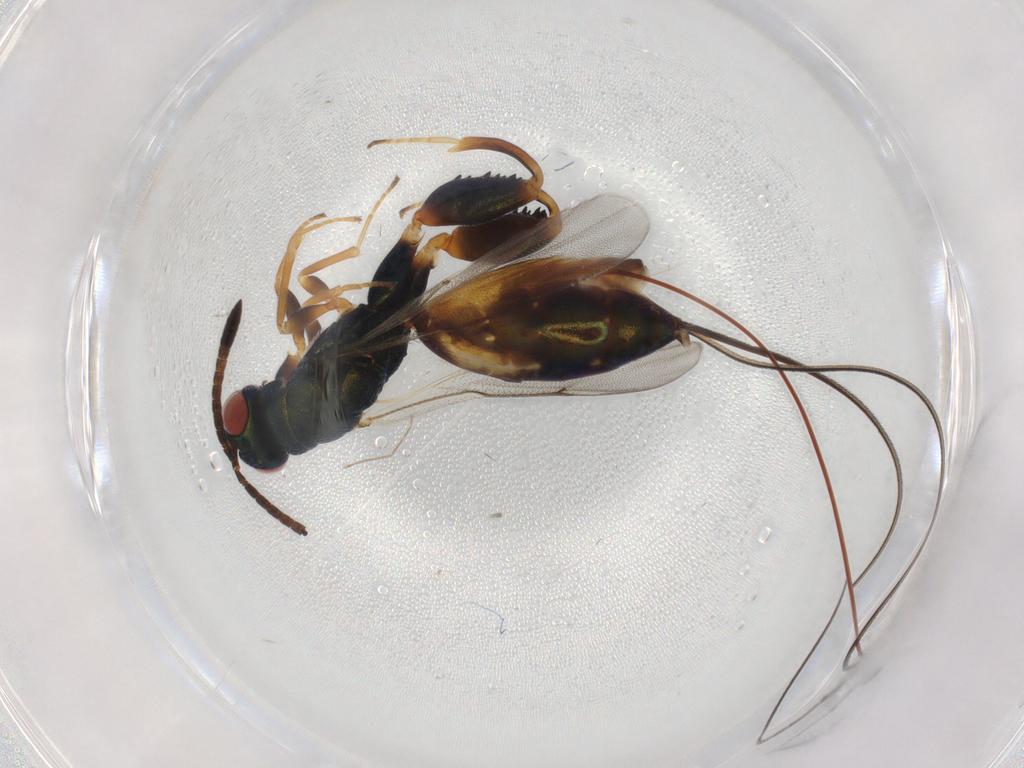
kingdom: Animalia
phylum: Arthropoda
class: Insecta
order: Hymenoptera
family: Torymidae
